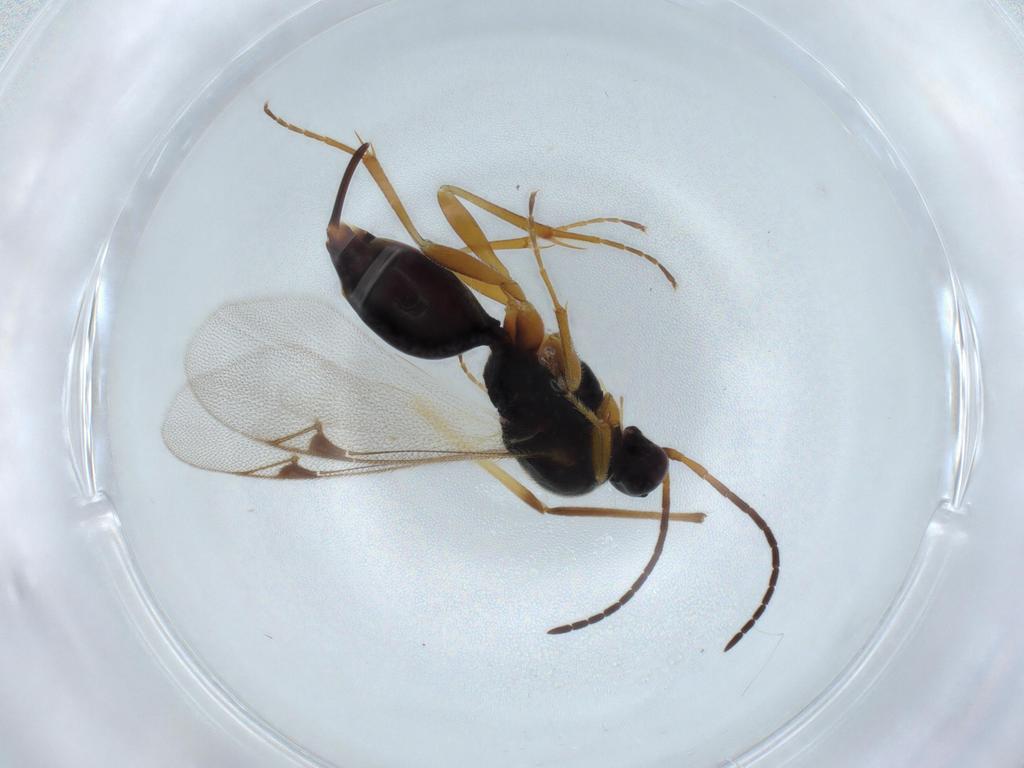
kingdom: Animalia
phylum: Arthropoda
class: Insecta
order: Hymenoptera
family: Proctotrupidae
